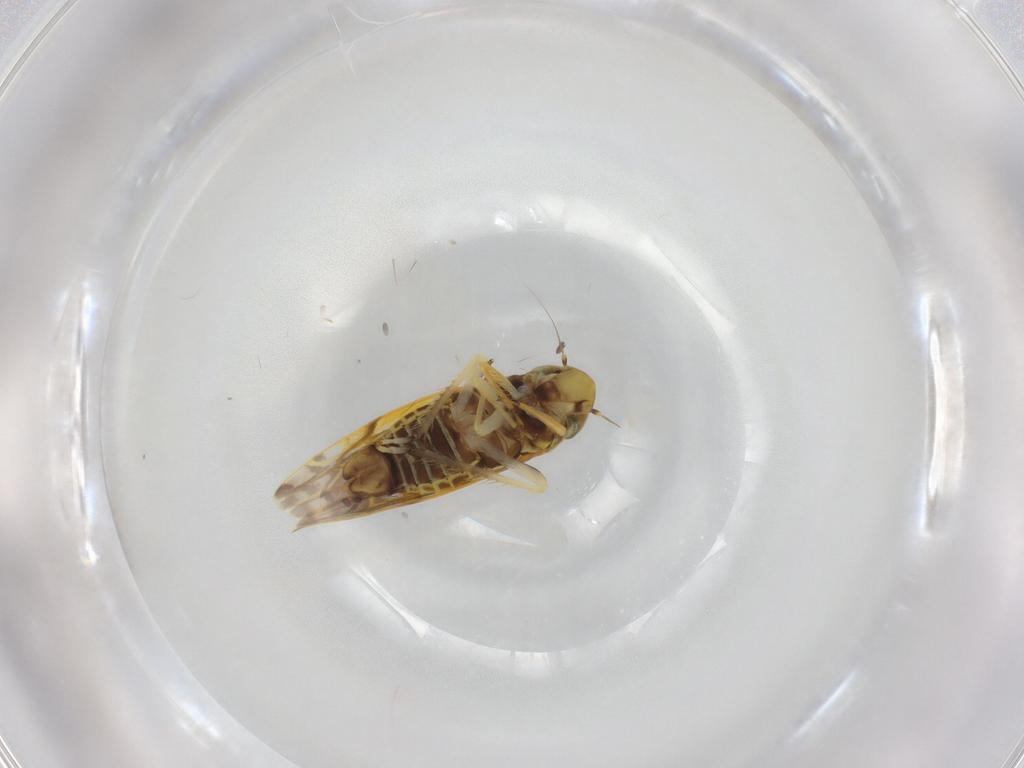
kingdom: Animalia
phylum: Arthropoda
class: Insecta
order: Hemiptera
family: Cicadellidae
